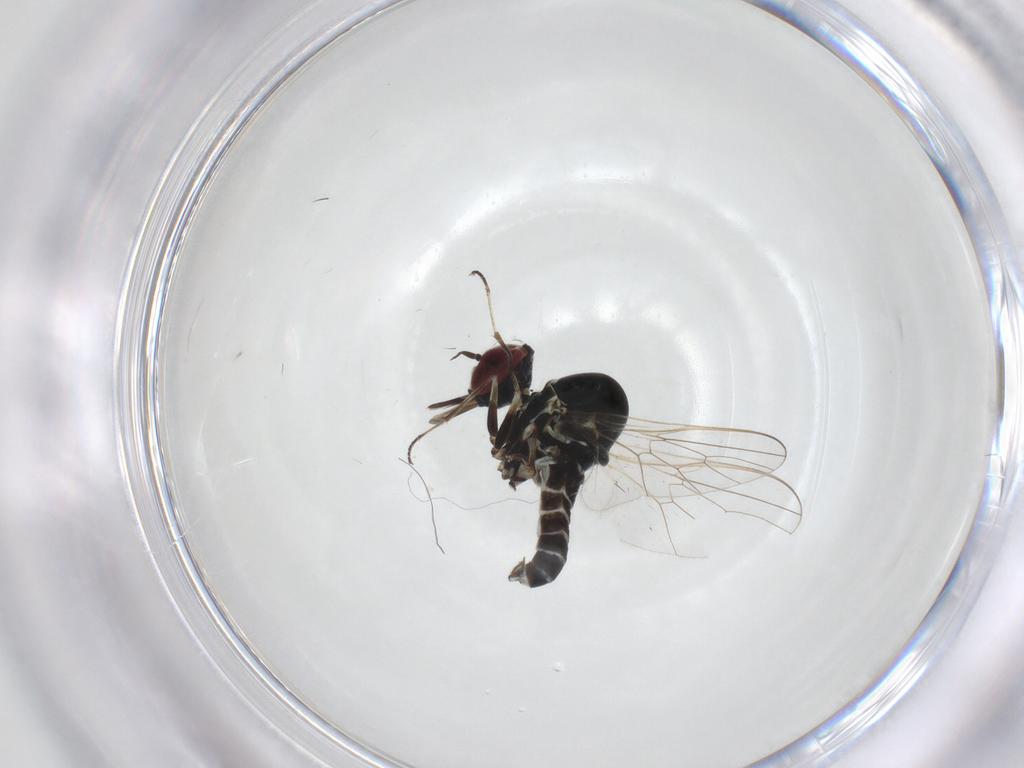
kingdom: Animalia
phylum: Arthropoda
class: Insecta
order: Diptera
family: Bombyliidae
